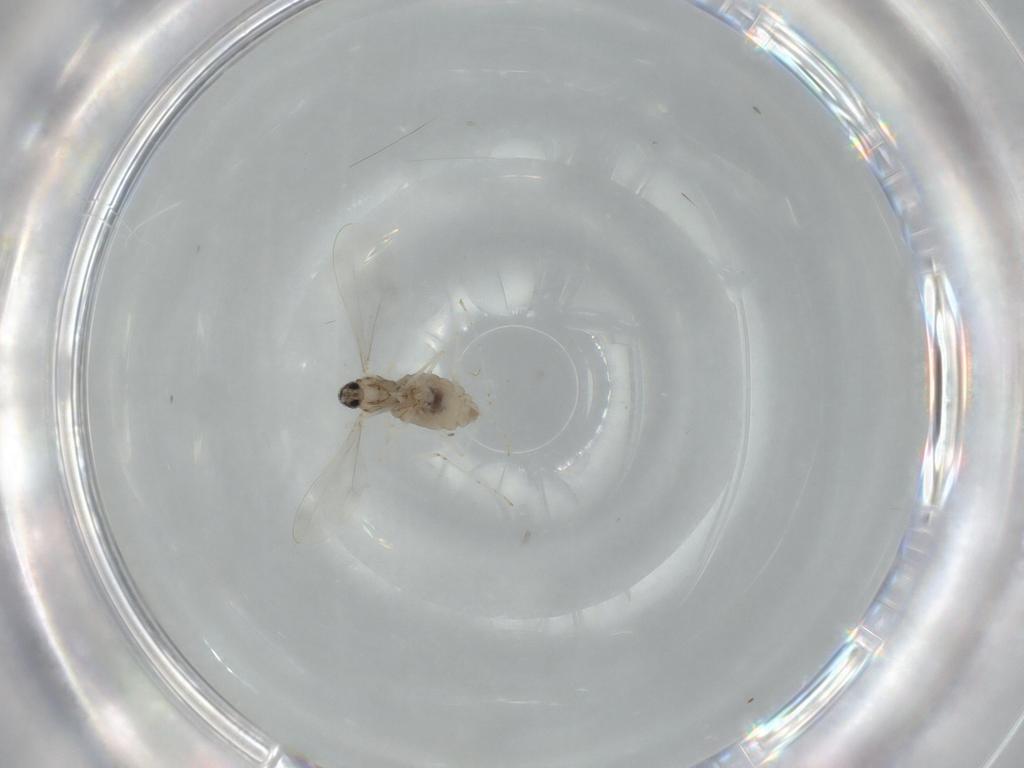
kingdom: Animalia
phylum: Arthropoda
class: Insecta
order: Diptera
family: Cecidomyiidae
